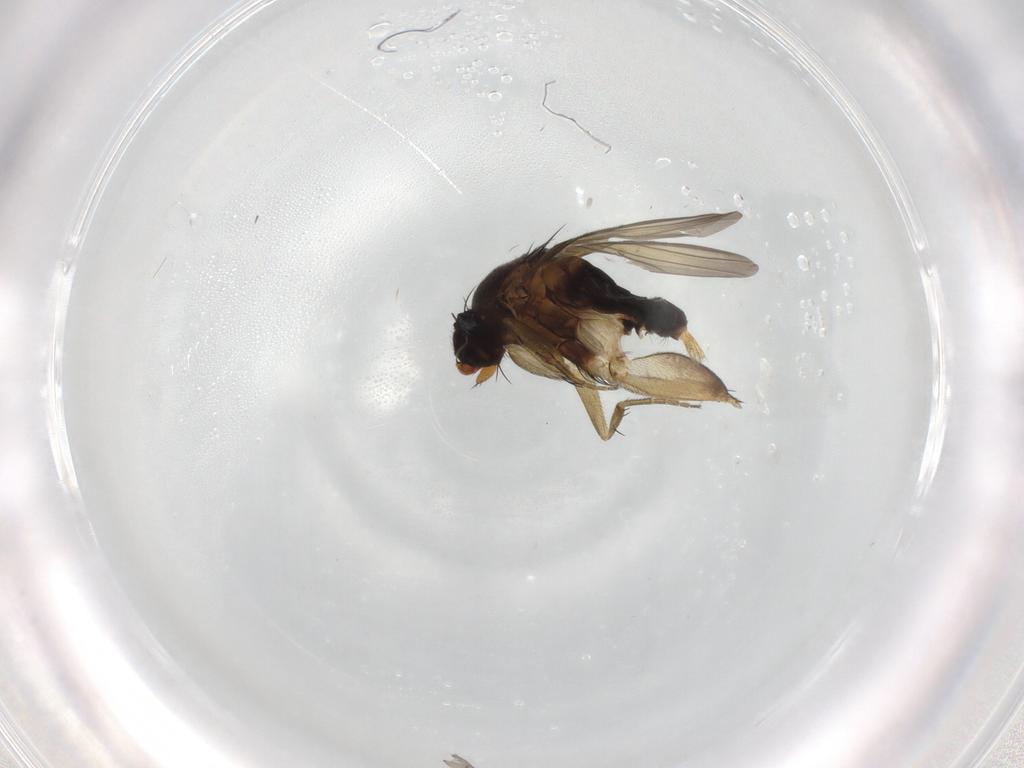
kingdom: Animalia
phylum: Arthropoda
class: Insecta
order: Diptera
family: Phoridae
